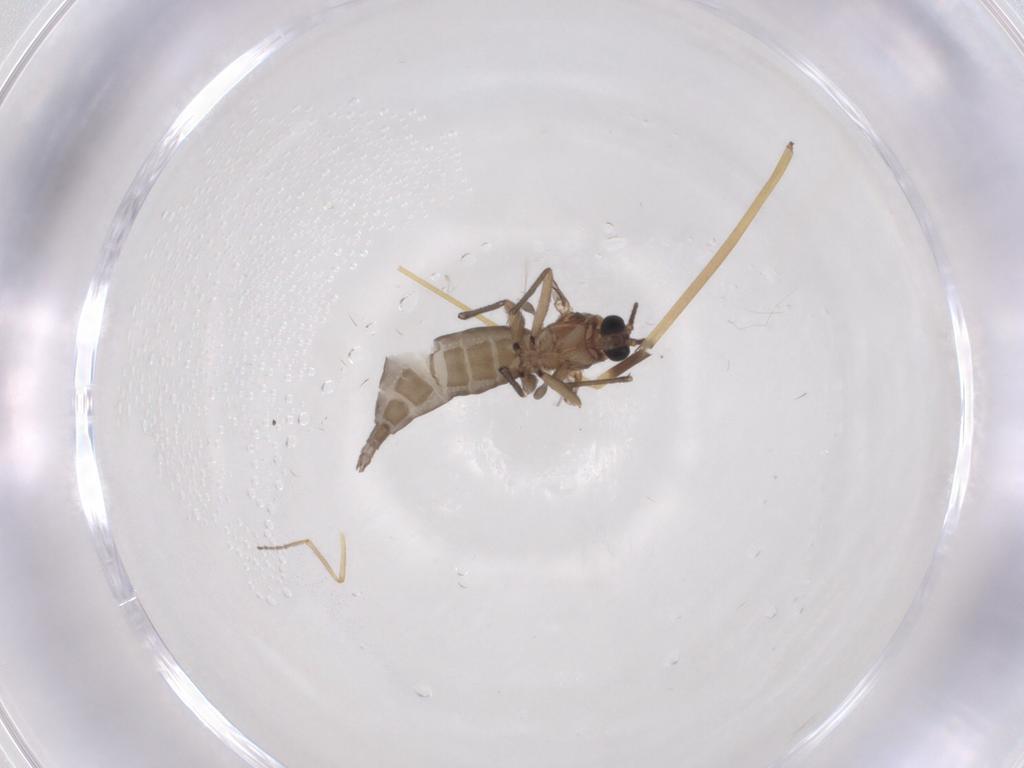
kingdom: Animalia
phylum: Arthropoda
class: Insecta
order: Diptera
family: Sciaridae
